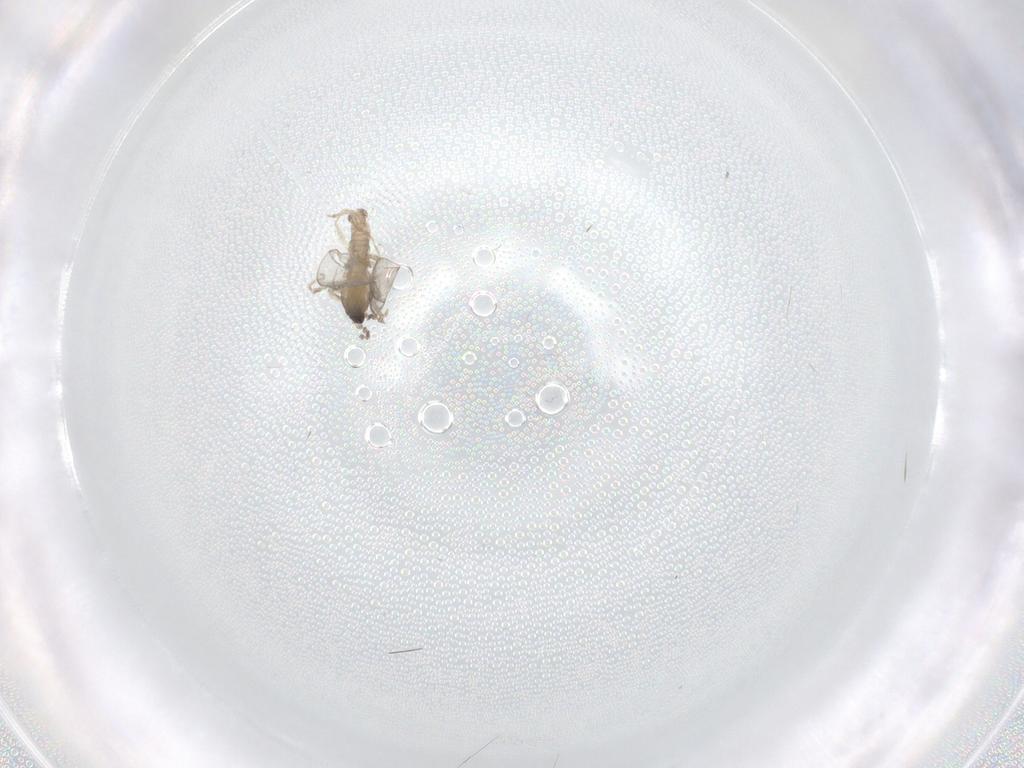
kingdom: Animalia
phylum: Arthropoda
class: Insecta
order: Diptera
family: Cecidomyiidae
